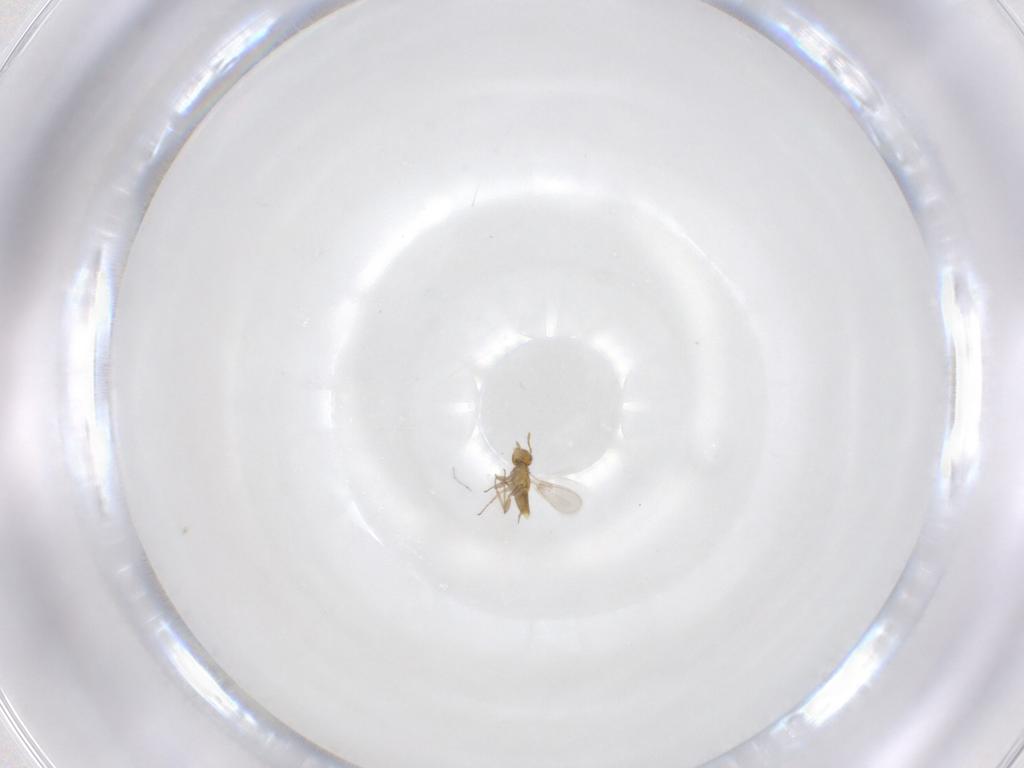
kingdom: Animalia
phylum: Arthropoda
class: Insecta
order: Hymenoptera
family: Aphelinidae
